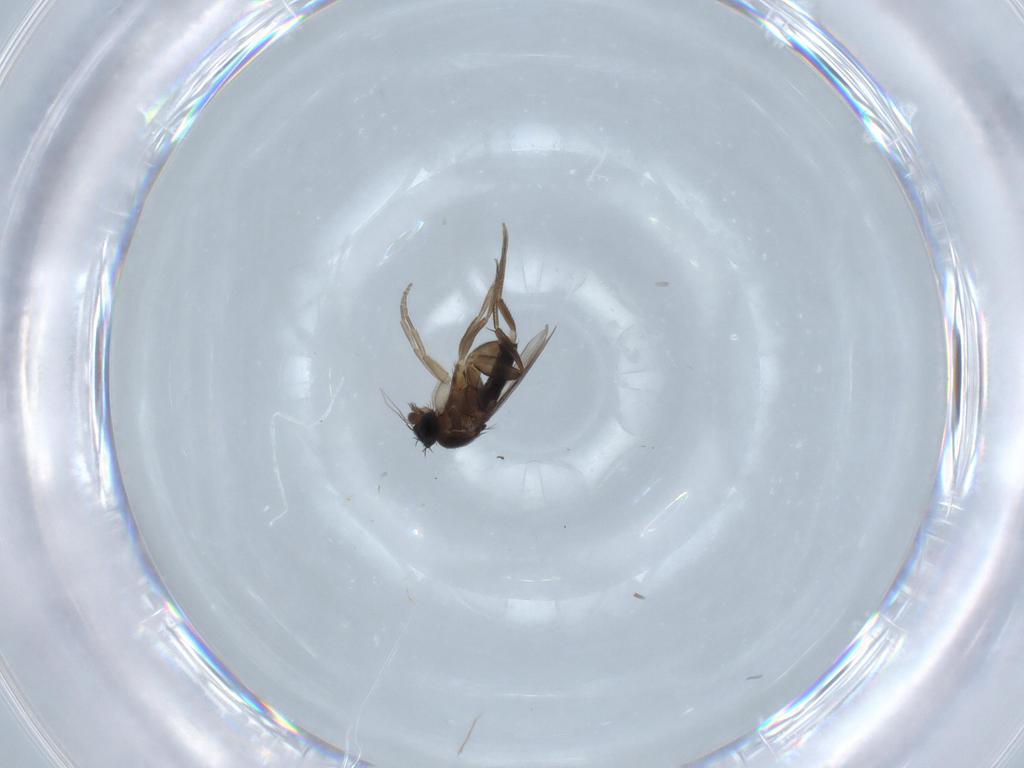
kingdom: Animalia
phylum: Arthropoda
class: Insecta
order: Diptera
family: Phoridae
